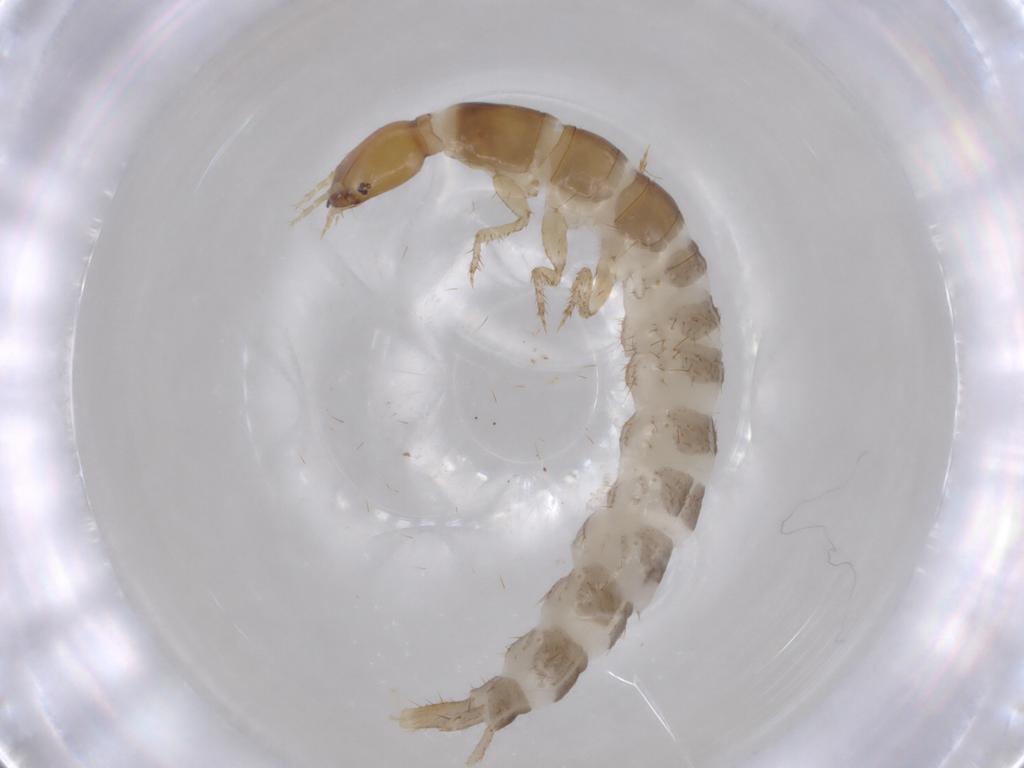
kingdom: Animalia
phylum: Arthropoda
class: Insecta
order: Coleoptera
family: Staphylinidae
